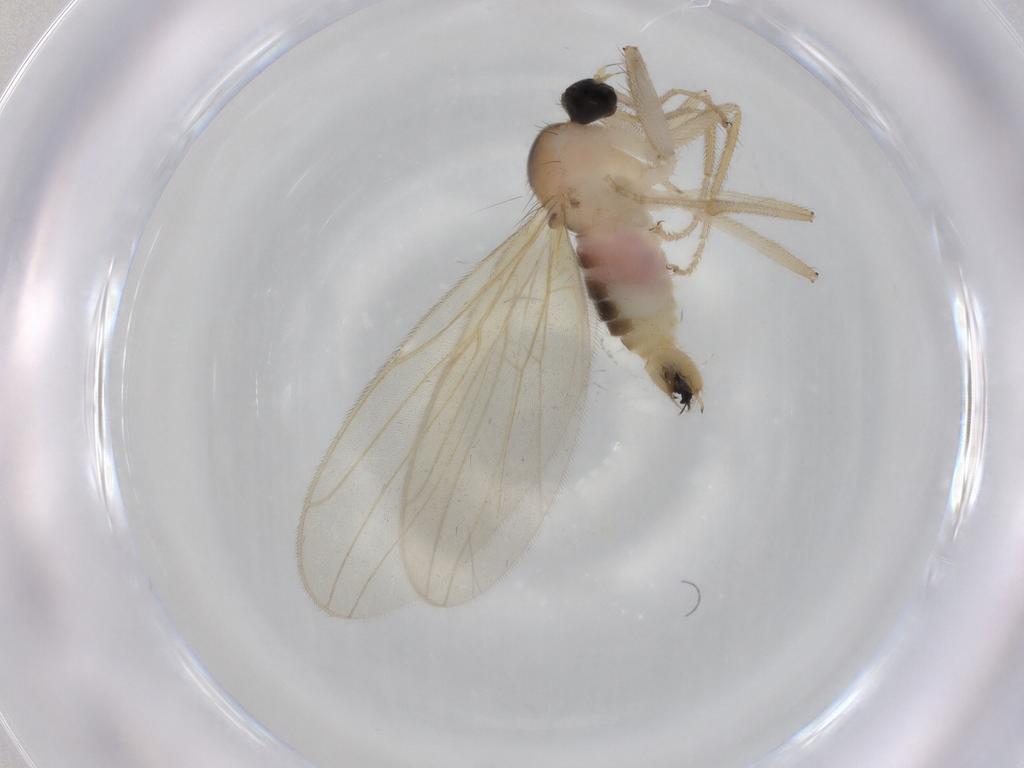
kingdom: Animalia
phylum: Arthropoda
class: Insecta
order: Diptera
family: Hybotidae
